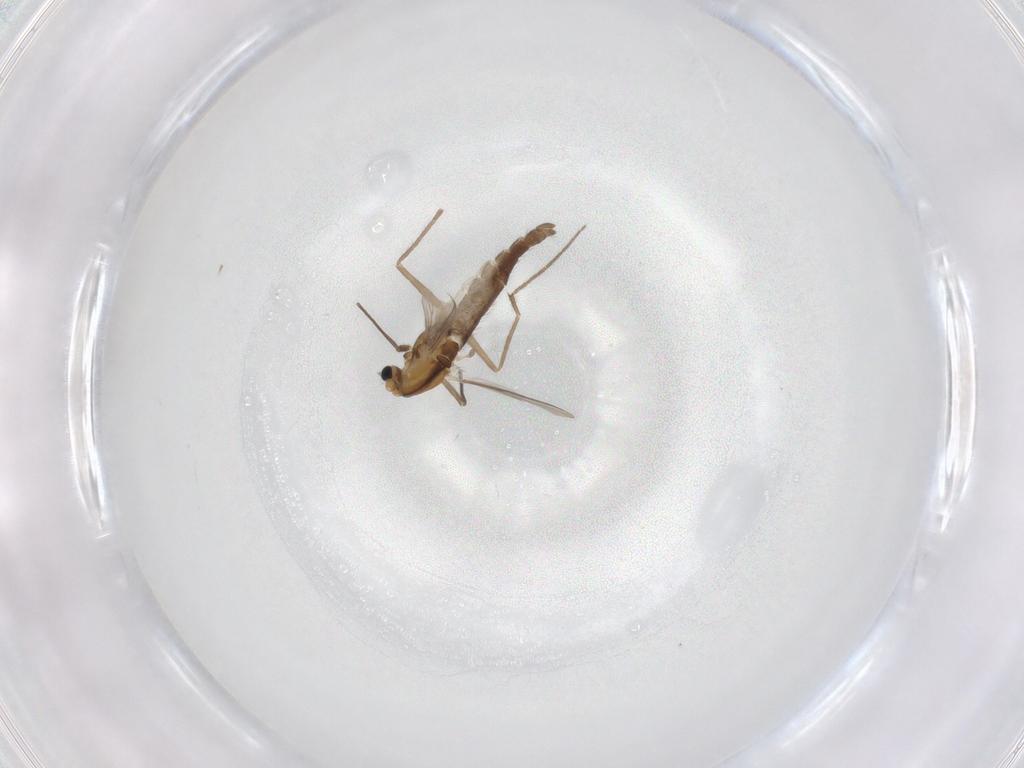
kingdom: Animalia
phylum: Arthropoda
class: Insecta
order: Diptera
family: Chironomidae
